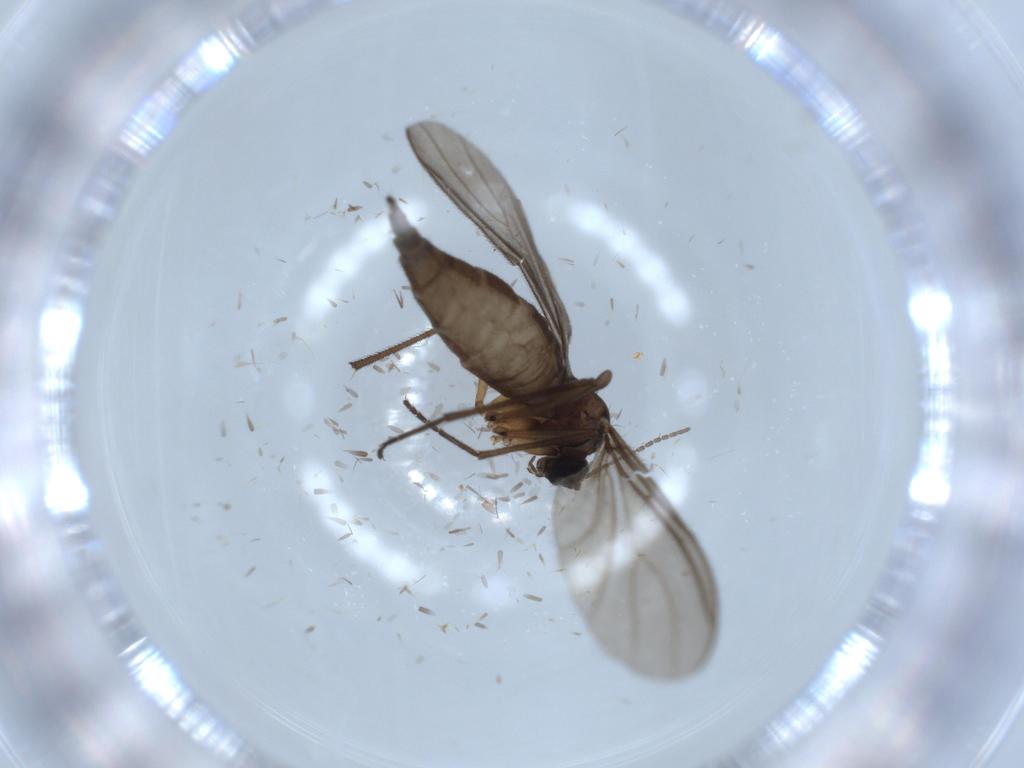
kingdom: Animalia
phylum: Arthropoda
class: Insecta
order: Diptera
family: Sciaridae
